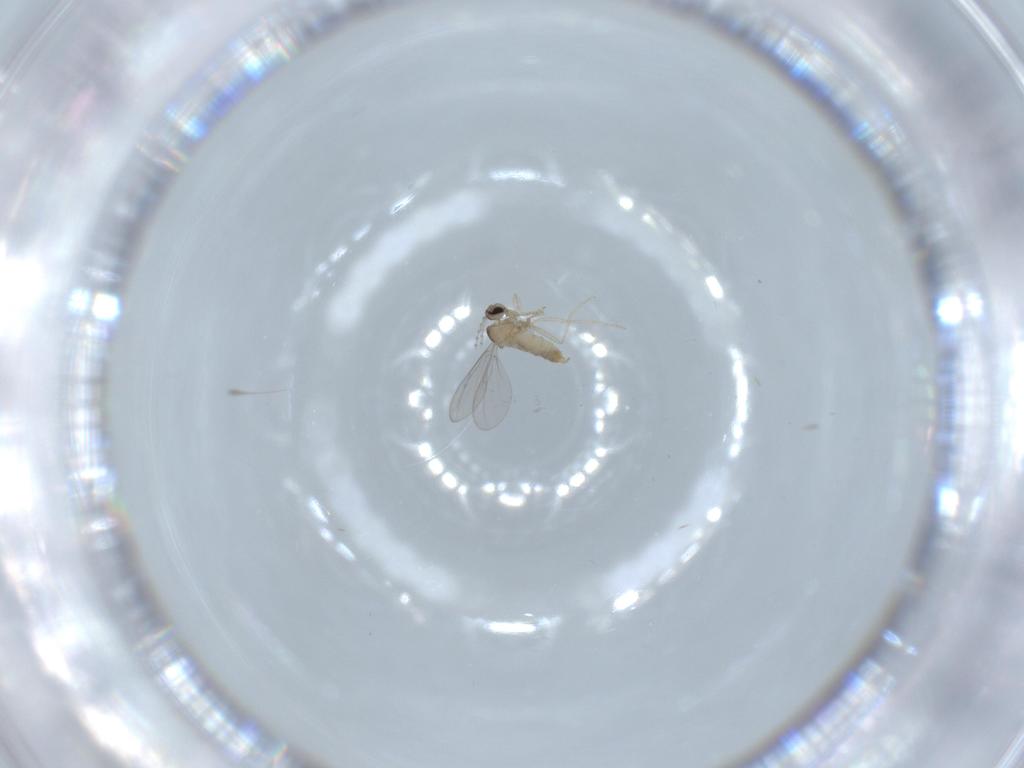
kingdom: Animalia
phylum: Arthropoda
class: Insecta
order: Diptera
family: Cecidomyiidae
